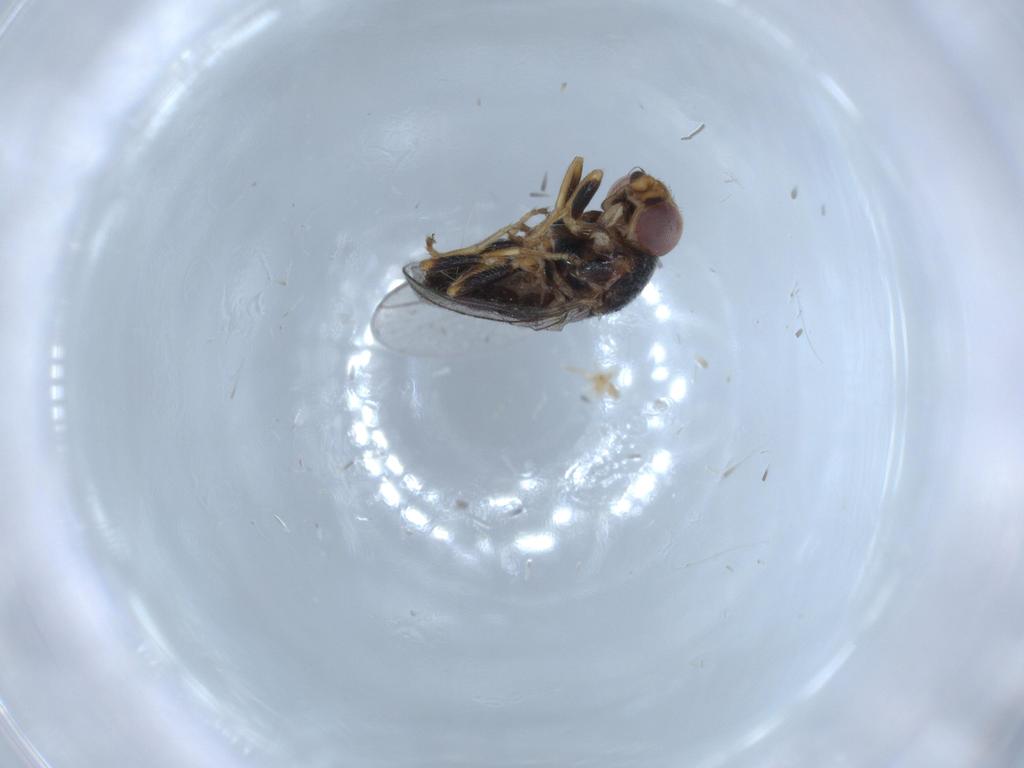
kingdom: Animalia
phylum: Arthropoda
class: Insecta
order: Diptera
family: Chloropidae
